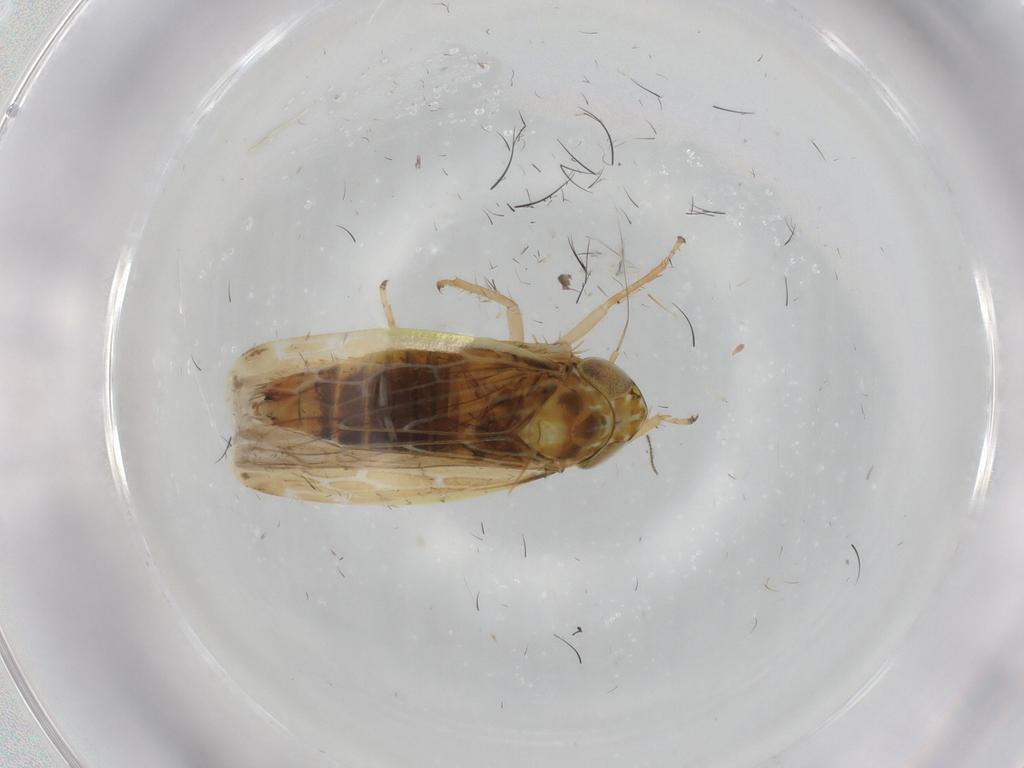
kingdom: Animalia
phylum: Arthropoda
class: Insecta
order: Hemiptera
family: Cicadellidae
